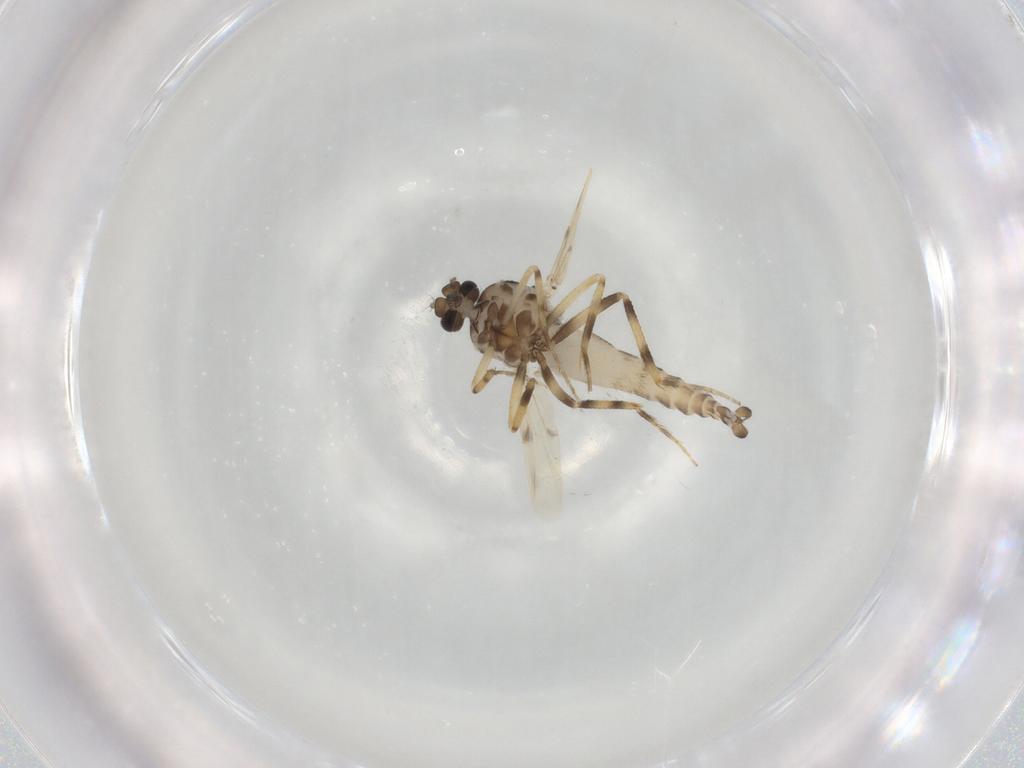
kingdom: Animalia
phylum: Arthropoda
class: Insecta
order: Diptera
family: Ceratopogonidae
